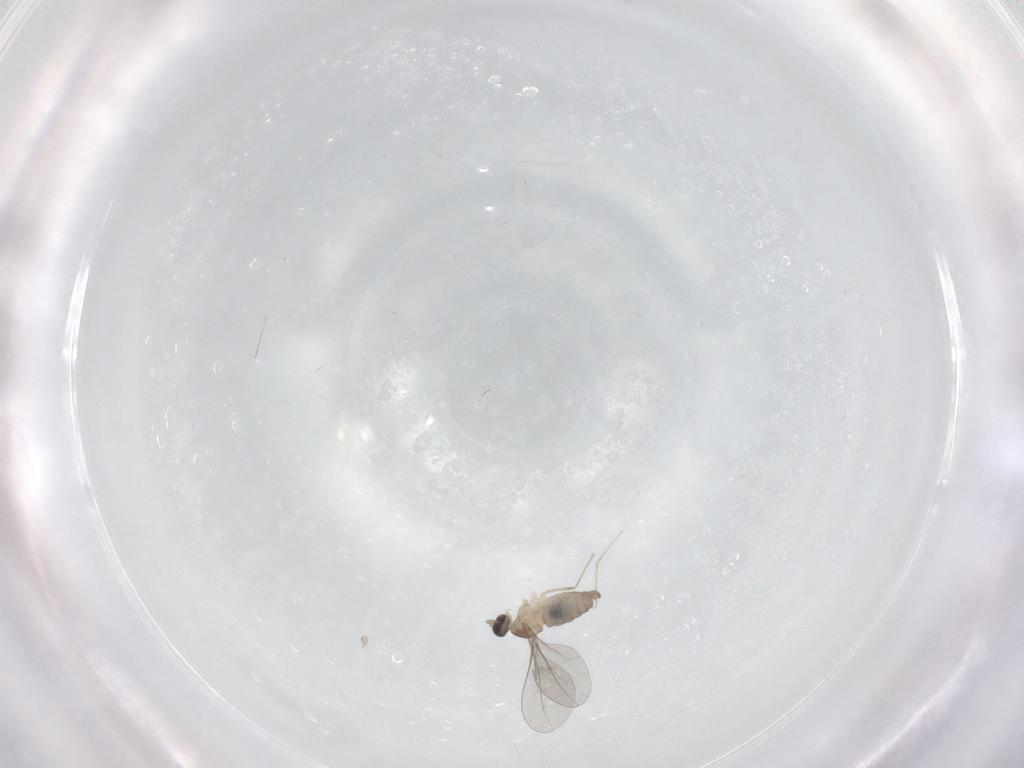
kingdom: Animalia
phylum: Arthropoda
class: Insecta
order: Diptera
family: Cecidomyiidae
